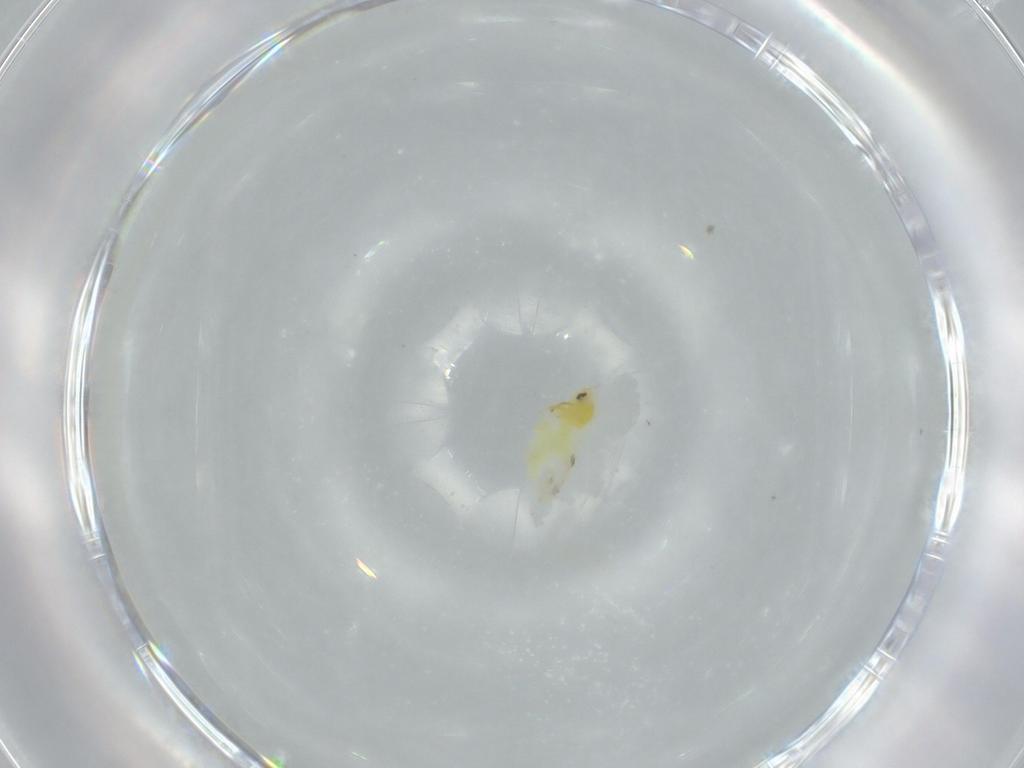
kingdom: Animalia
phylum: Arthropoda
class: Insecta
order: Hemiptera
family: Aleyrodidae
